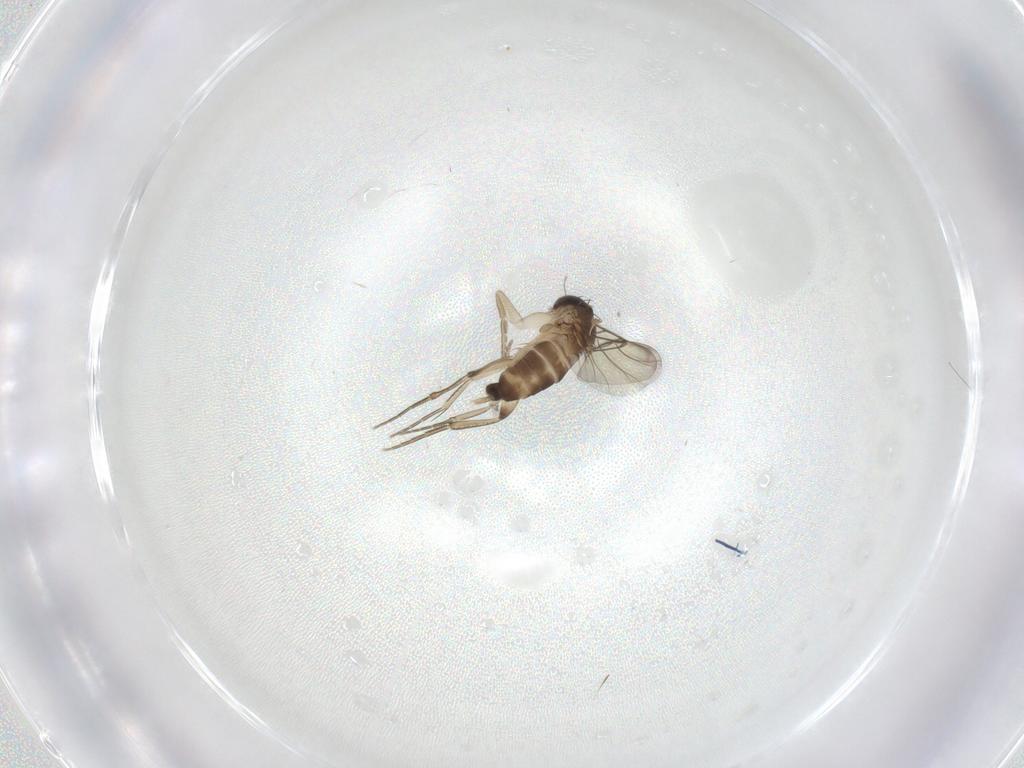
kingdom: Animalia
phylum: Arthropoda
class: Insecta
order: Diptera
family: Phoridae
